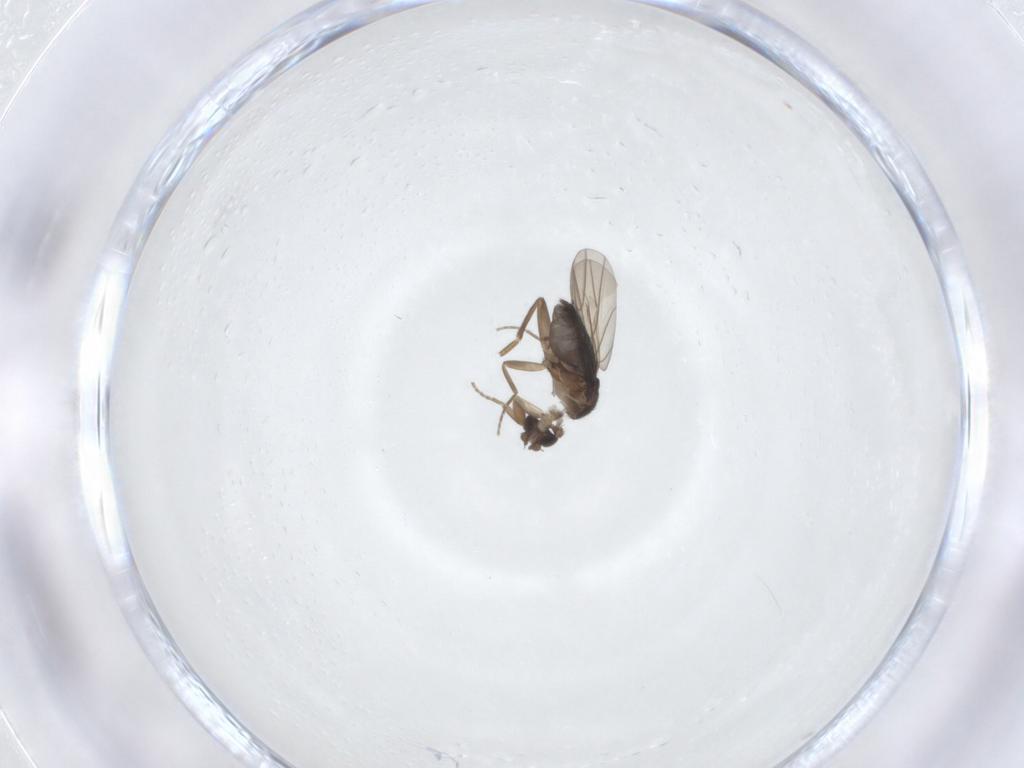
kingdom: Animalia
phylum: Arthropoda
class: Insecta
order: Diptera
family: Phoridae
